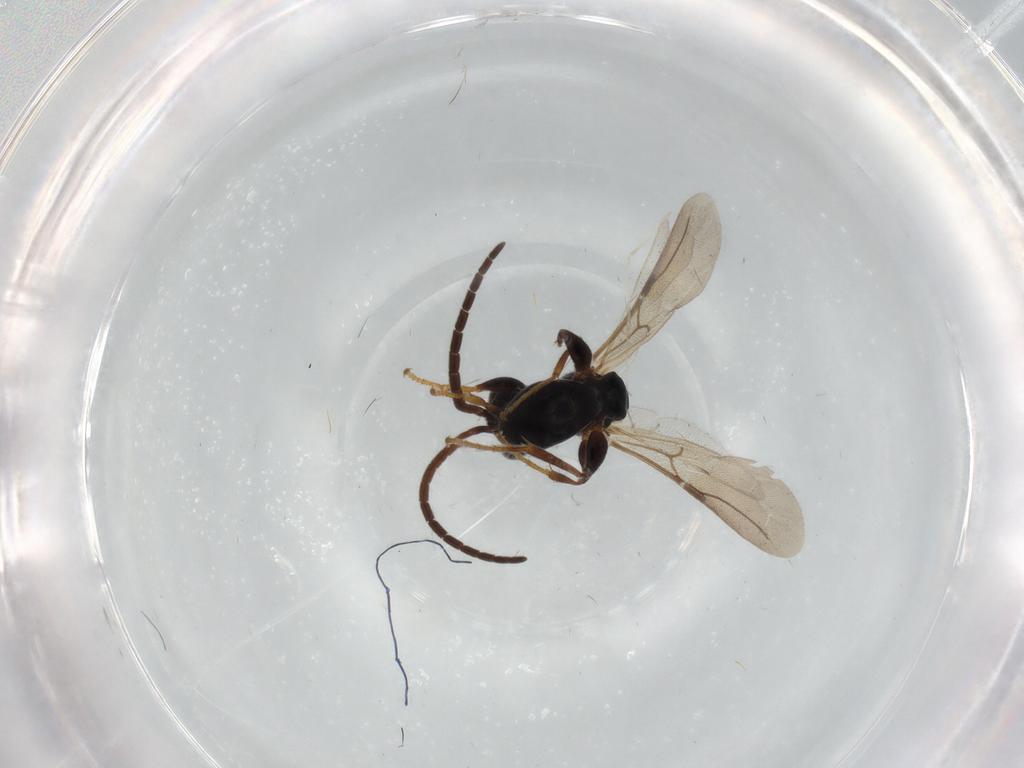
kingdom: Animalia
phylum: Arthropoda
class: Insecta
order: Hymenoptera
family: Bethylidae
